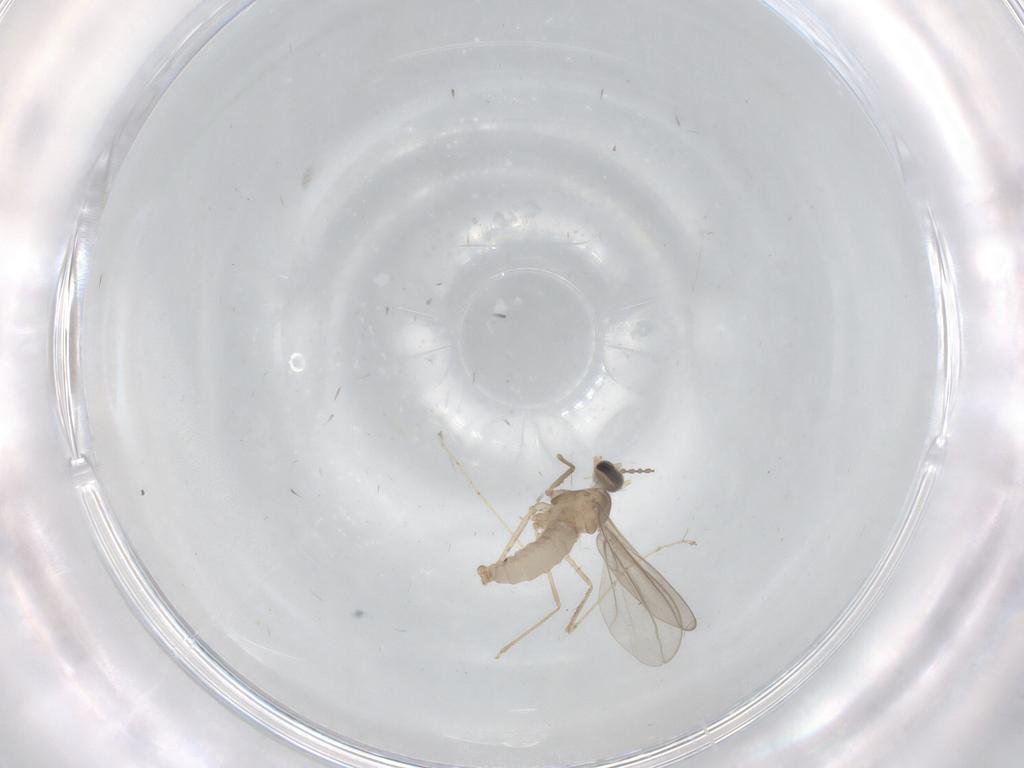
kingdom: Animalia
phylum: Arthropoda
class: Insecta
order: Diptera
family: Cecidomyiidae
